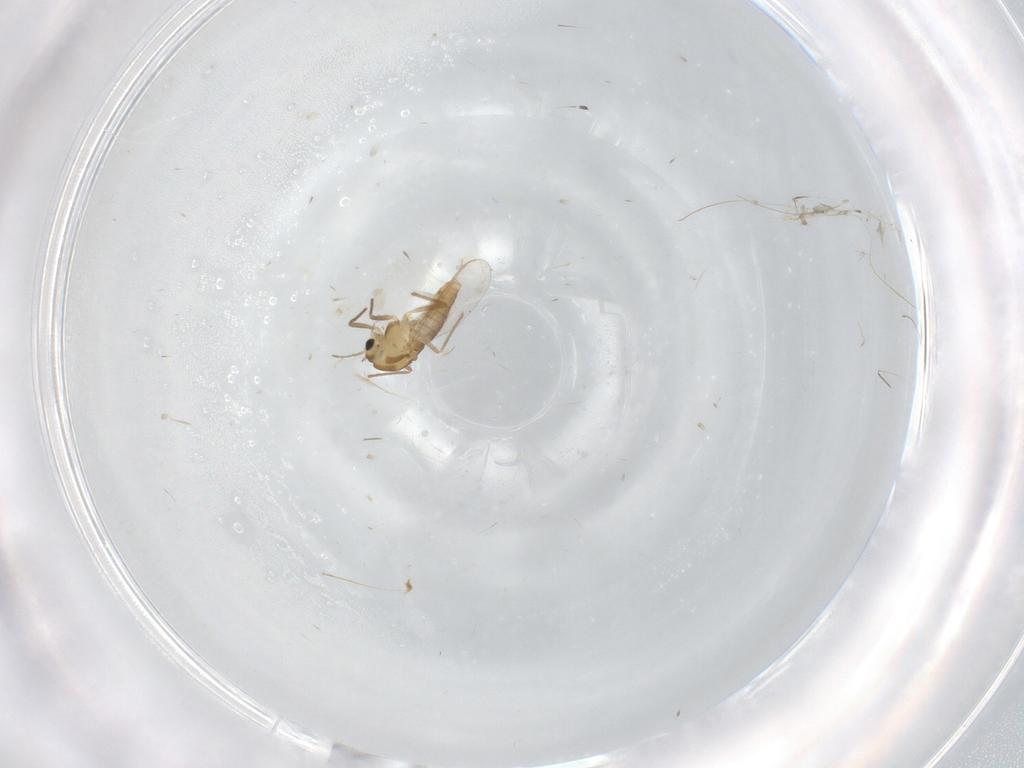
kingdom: Animalia
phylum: Arthropoda
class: Insecta
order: Diptera
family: Chironomidae
